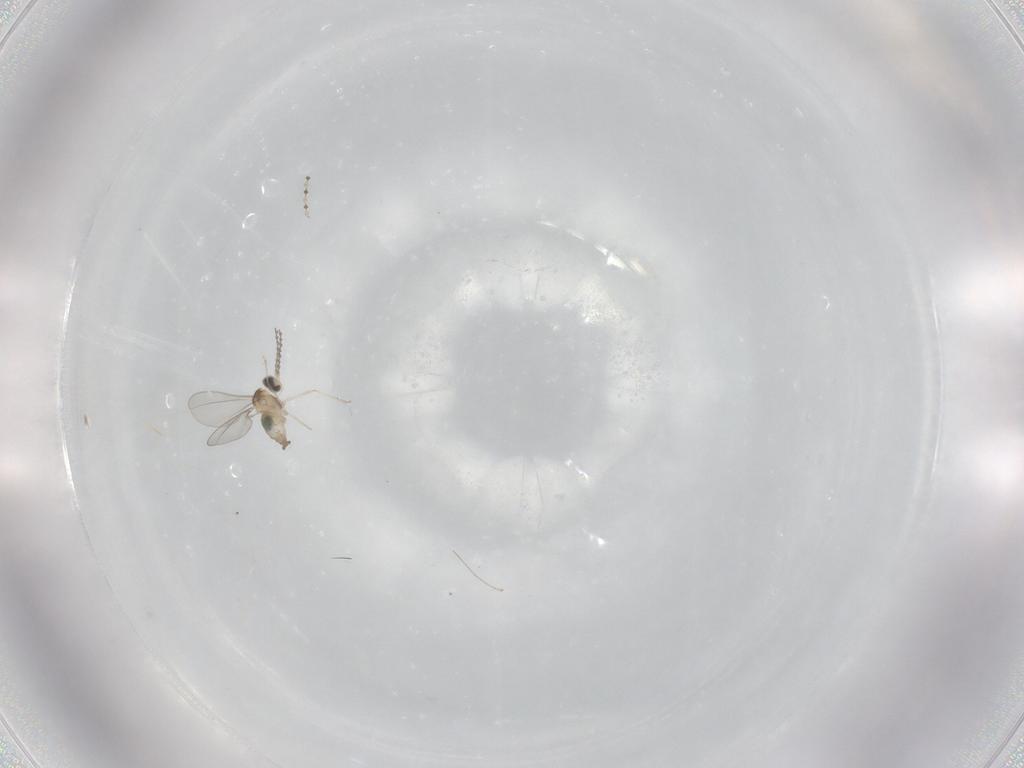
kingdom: Animalia
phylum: Arthropoda
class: Insecta
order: Diptera
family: Cecidomyiidae
